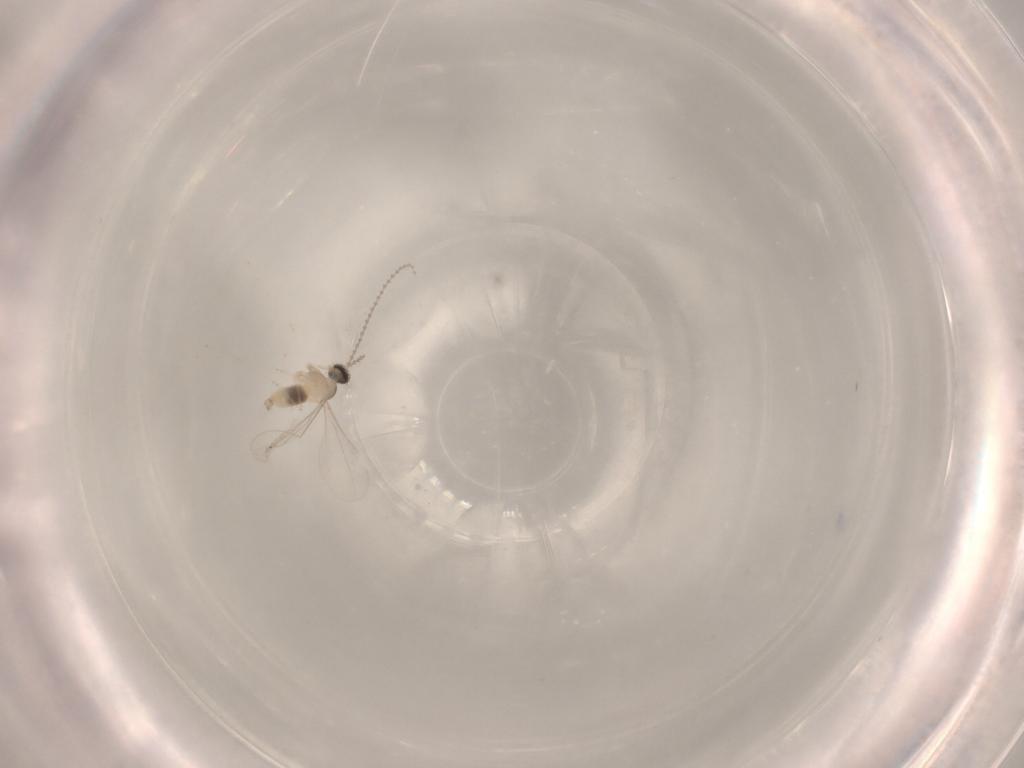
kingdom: Animalia
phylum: Arthropoda
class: Insecta
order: Diptera
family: Cecidomyiidae
